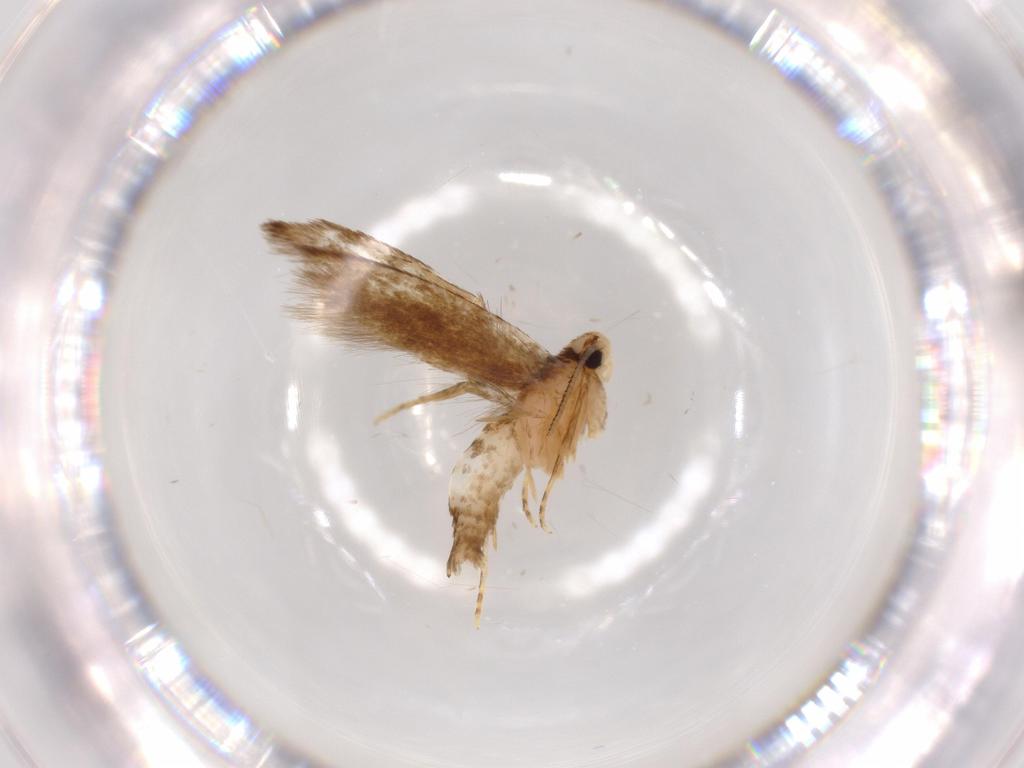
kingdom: Animalia
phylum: Arthropoda
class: Insecta
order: Lepidoptera
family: Tineidae
